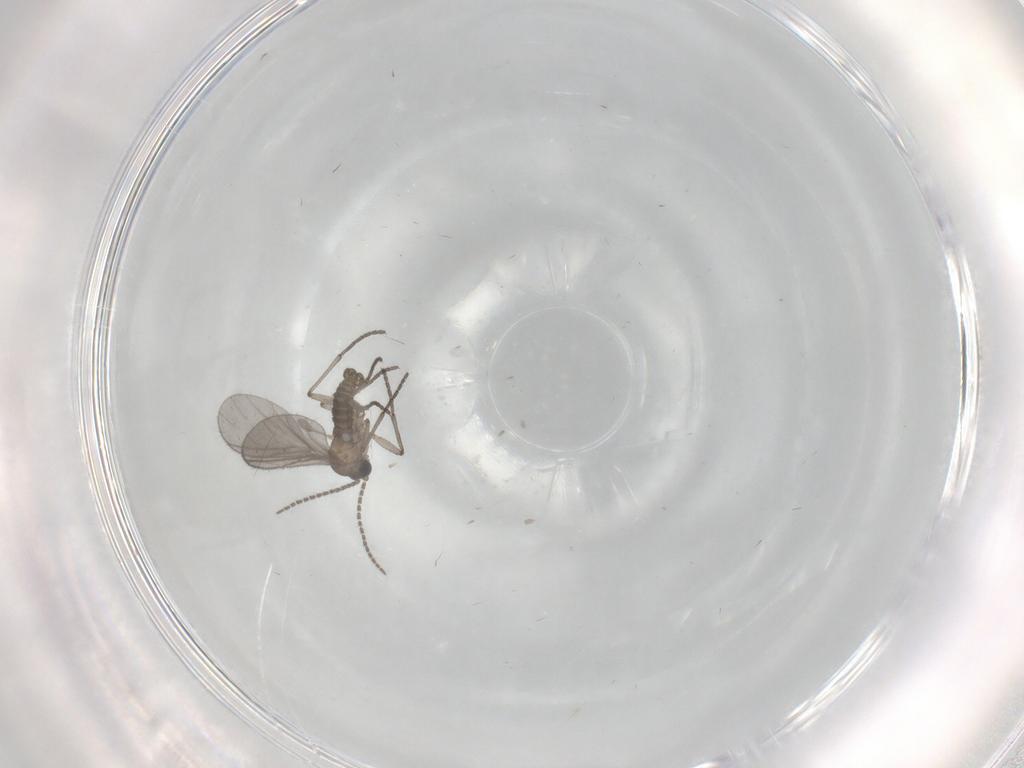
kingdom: Animalia
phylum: Arthropoda
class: Insecta
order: Diptera
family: Sciaridae
